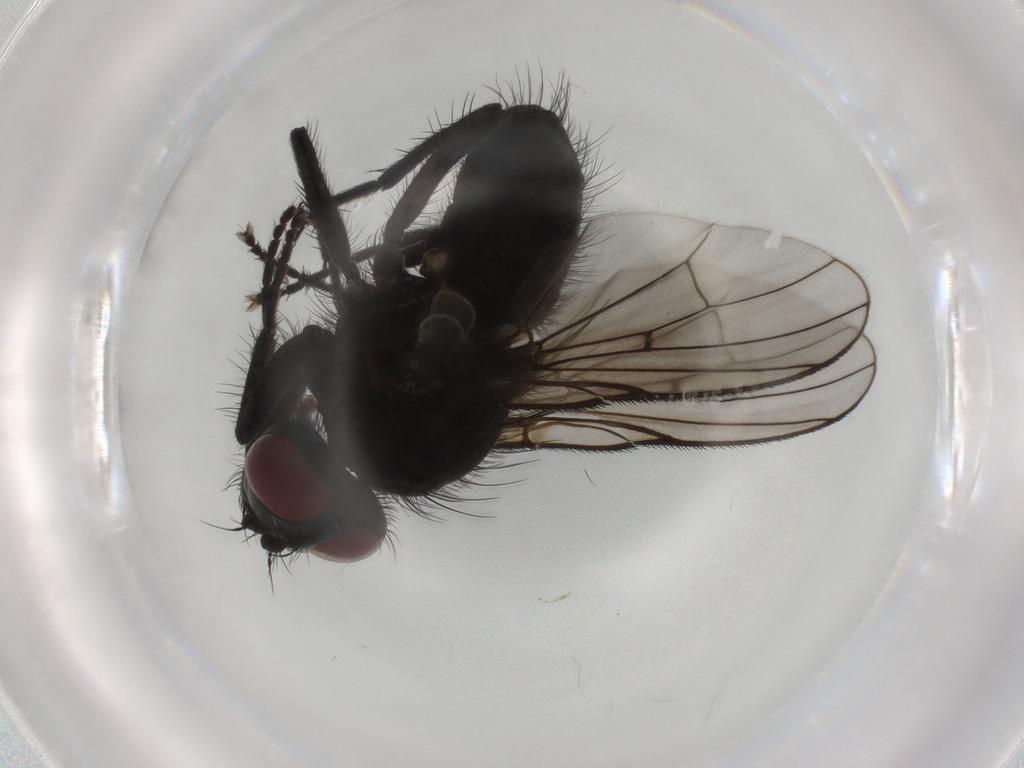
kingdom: Animalia
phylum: Arthropoda
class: Insecta
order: Diptera
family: Muscidae
